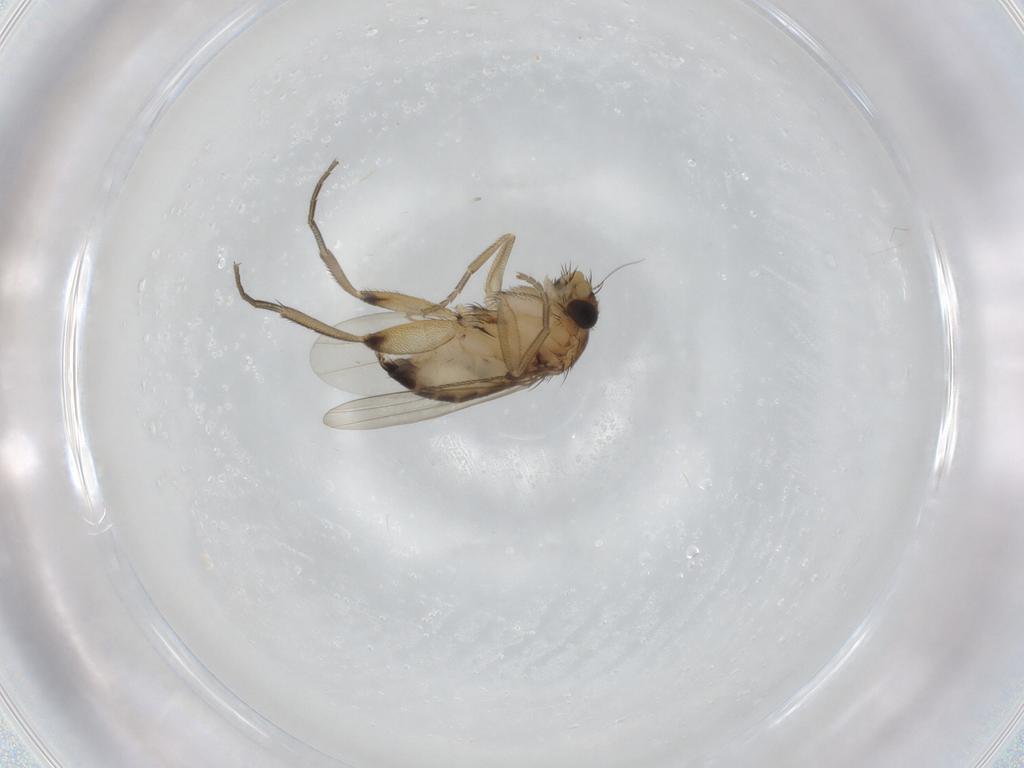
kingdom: Animalia
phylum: Arthropoda
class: Insecta
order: Diptera
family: Phoridae
